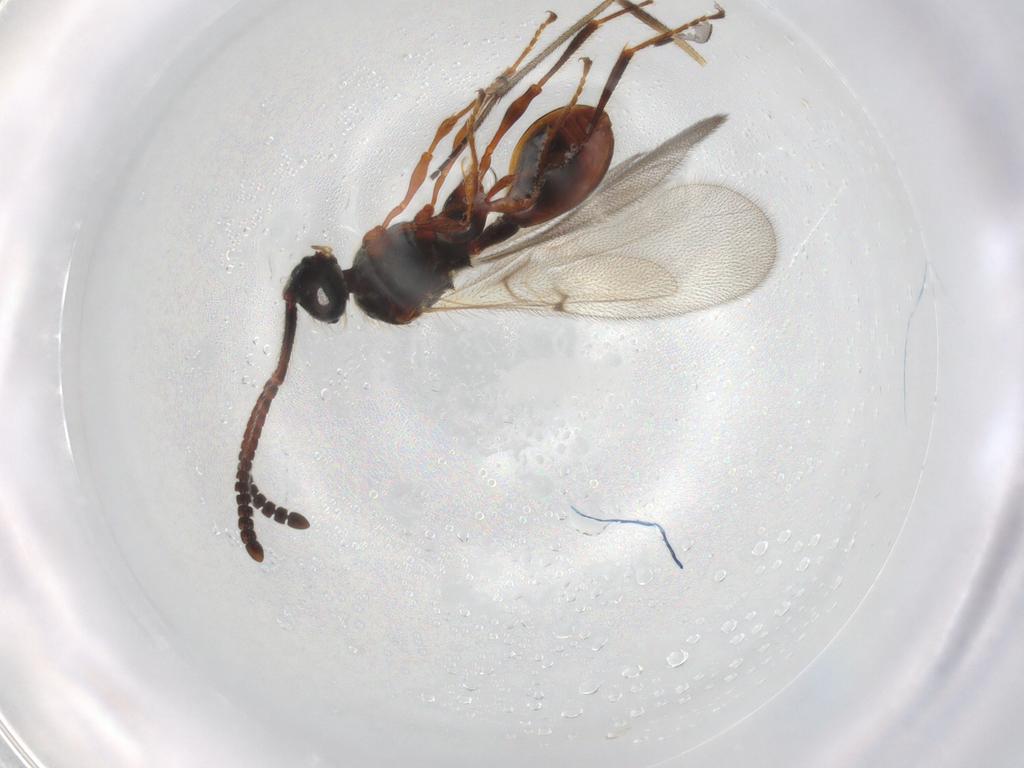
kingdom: Animalia
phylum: Arthropoda
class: Insecta
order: Hymenoptera
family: Diapriidae
